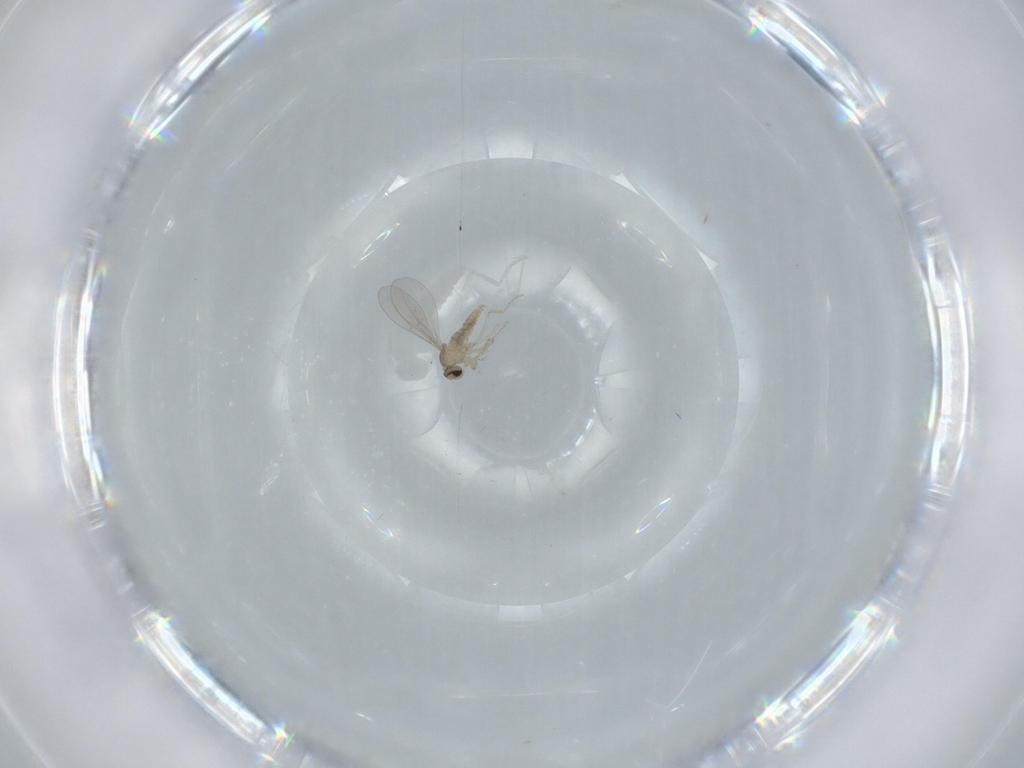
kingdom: Animalia
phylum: Arthropoda
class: Insecta
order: Diptera
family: Cecidomyiidae
